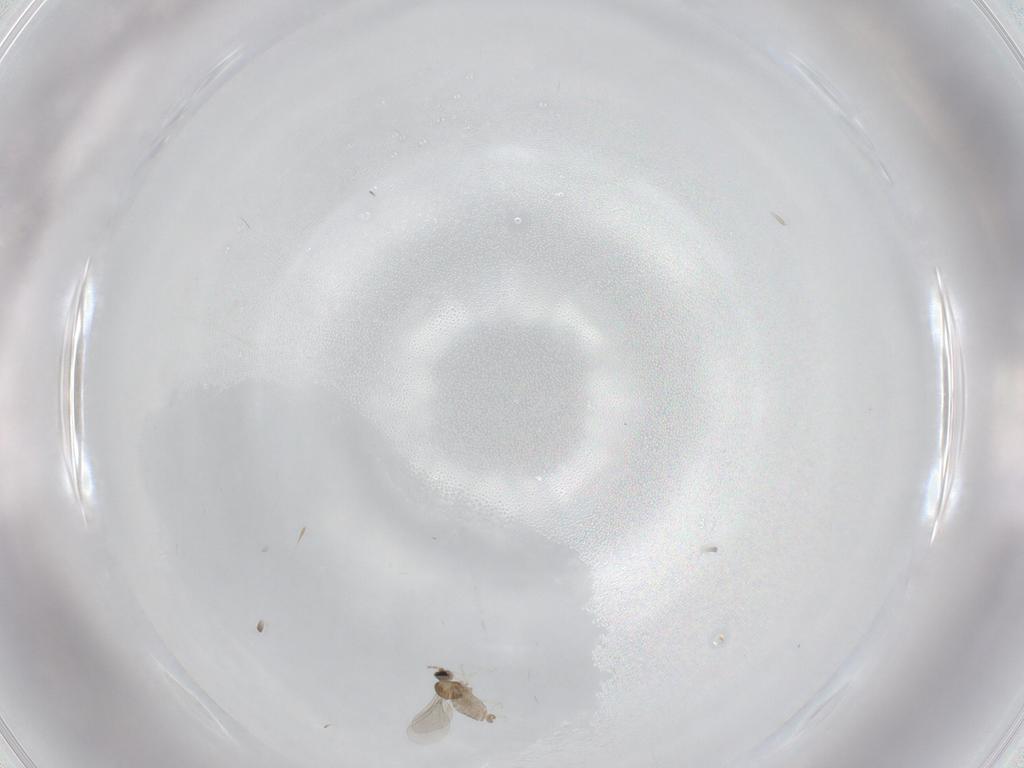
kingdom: Animalia
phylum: Arthropoda
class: Insecta
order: Diptera
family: Cecidomyiidae
